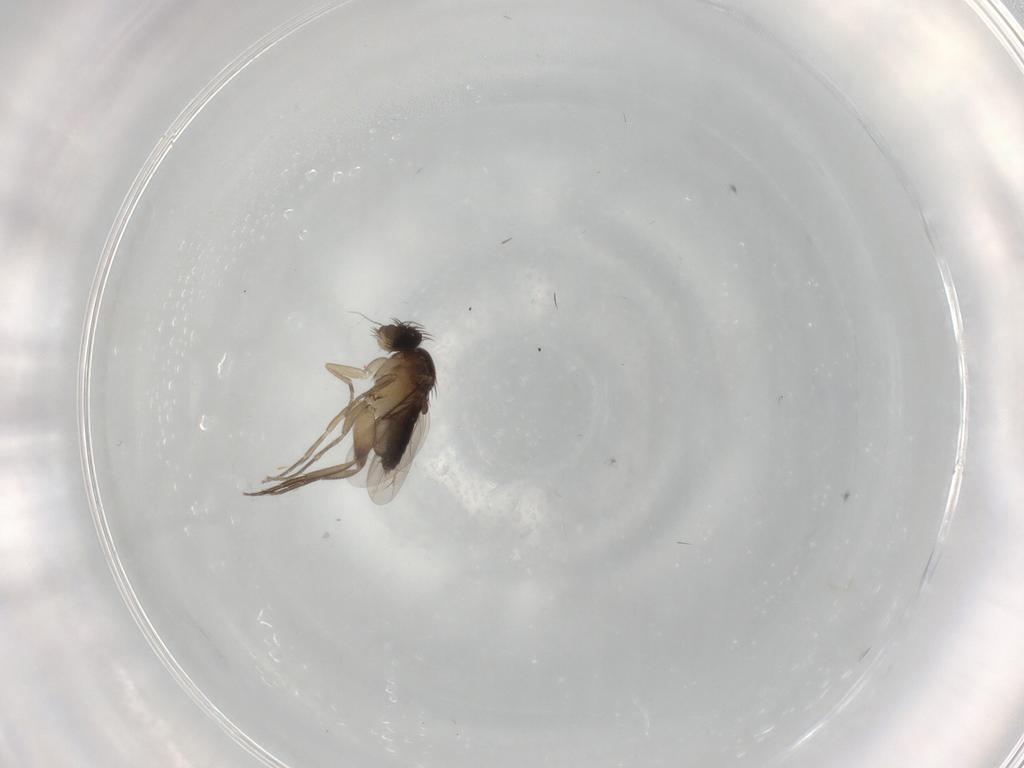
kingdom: Animalia
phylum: Arthropoda
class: Insecta
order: Diptera
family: Phoridae
